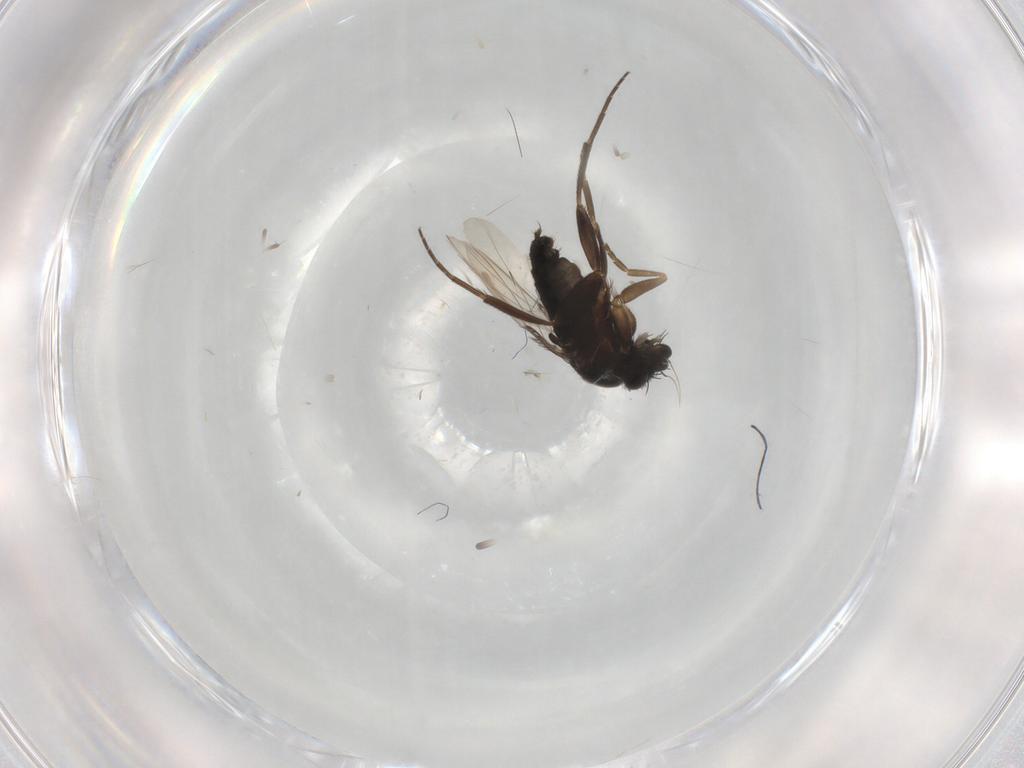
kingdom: Animalia
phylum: Arthropoda
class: Insecta
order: Diptera
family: Phoridae
